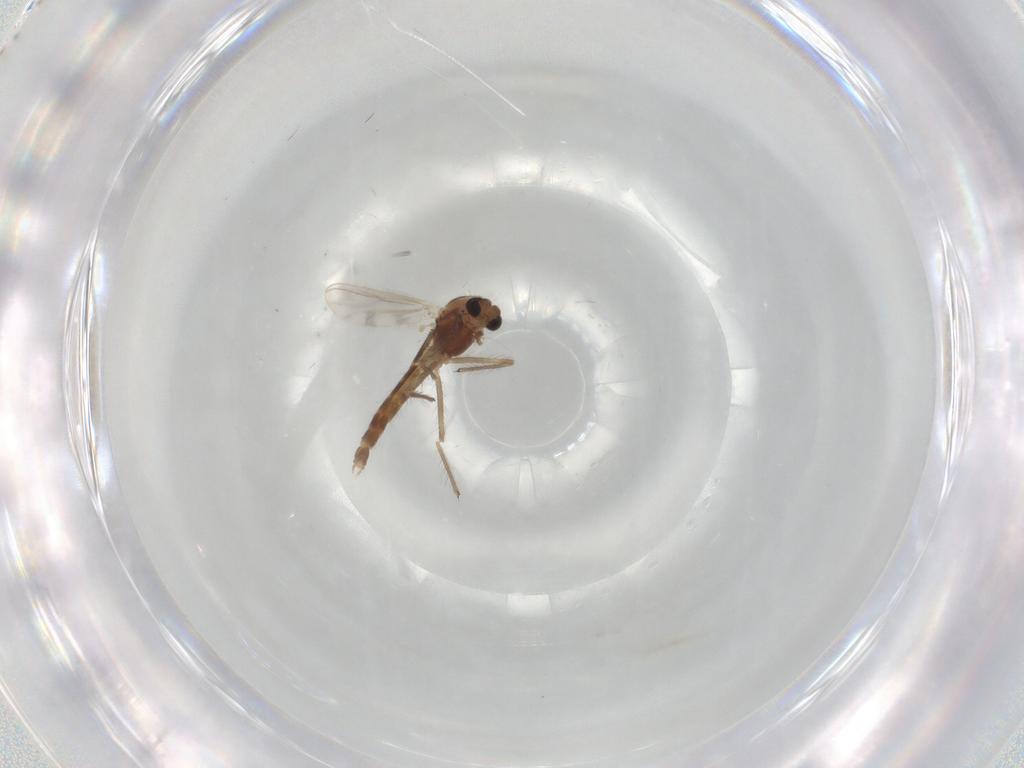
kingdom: Animalia
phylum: Arthropoda
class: Insecta
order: Diptera
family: Chironomidae
